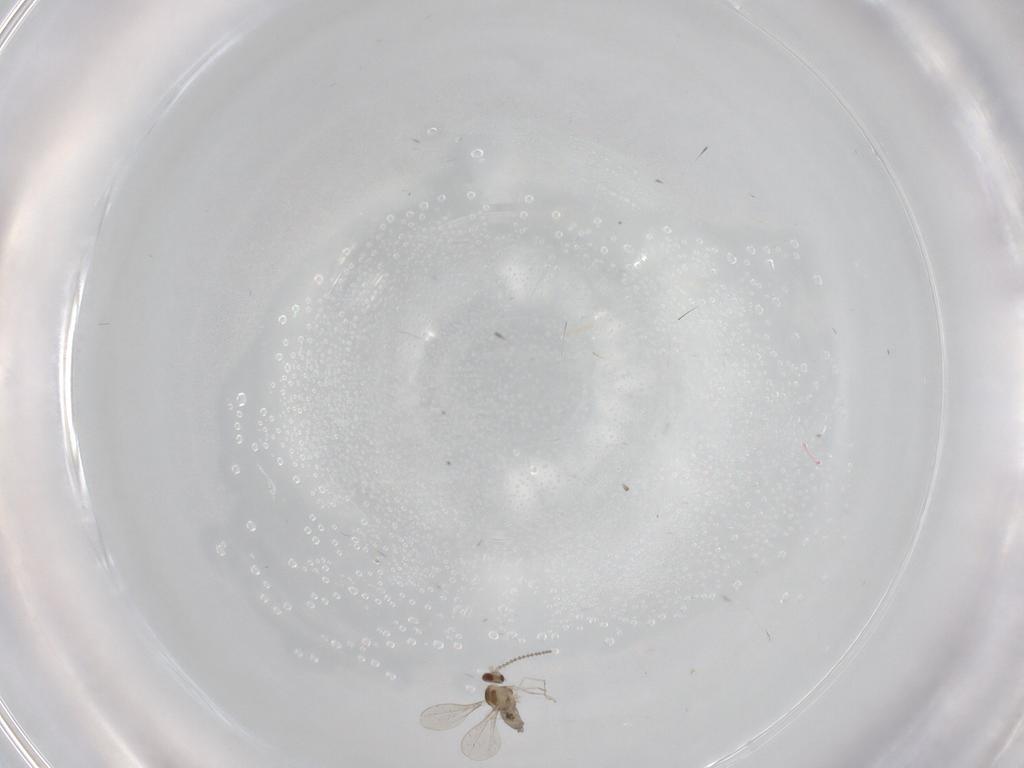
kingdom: Animalia
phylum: Arthropoda
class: Insecta
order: Diptera
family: Cecidomyiidae
